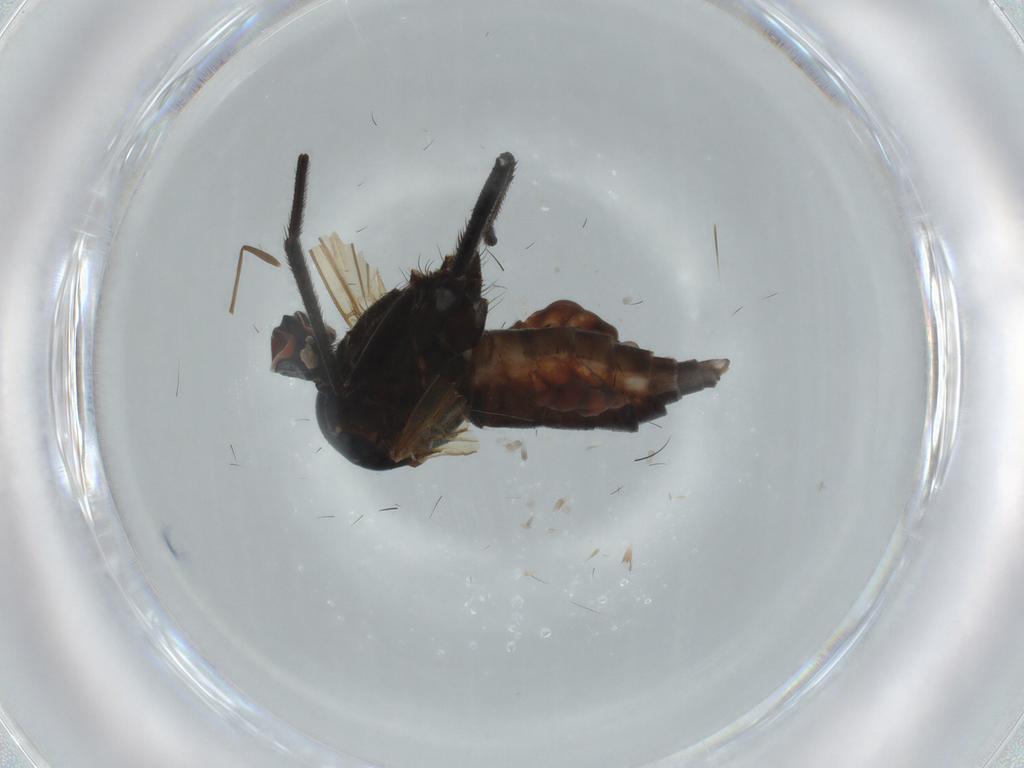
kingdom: Animalia
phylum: Arthropoda
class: Insecta
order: Diptera
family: Empididae
